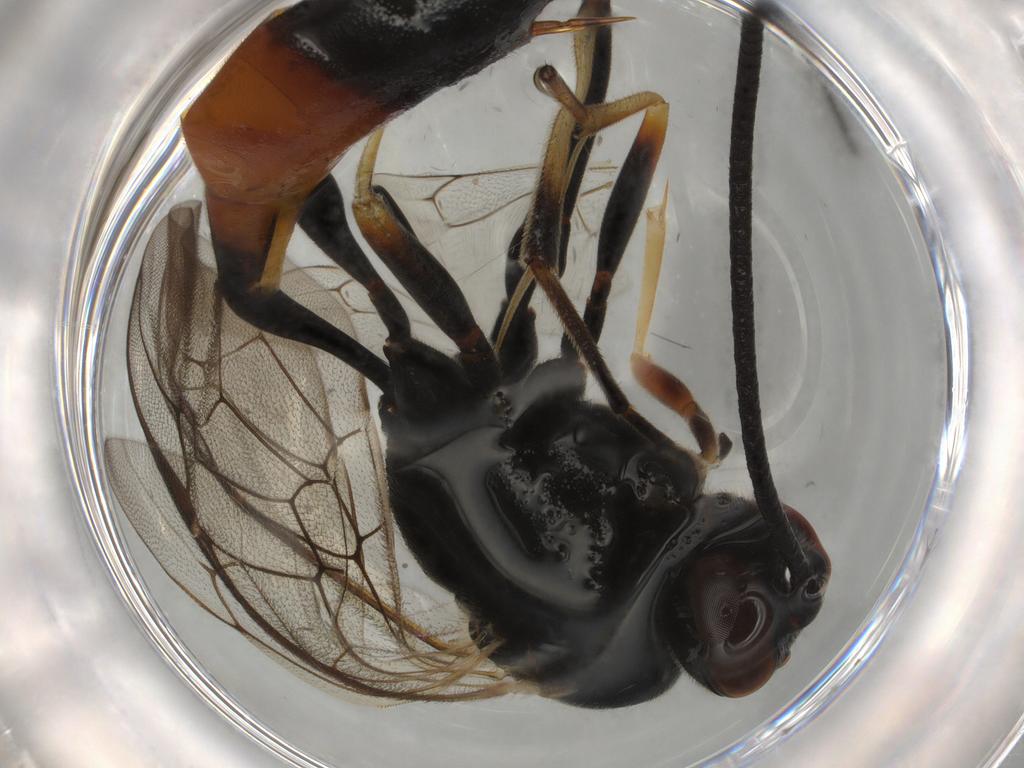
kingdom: Animalia
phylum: Arthropoda
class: Insecta
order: Hymenoptera
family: Ichneumonidae
